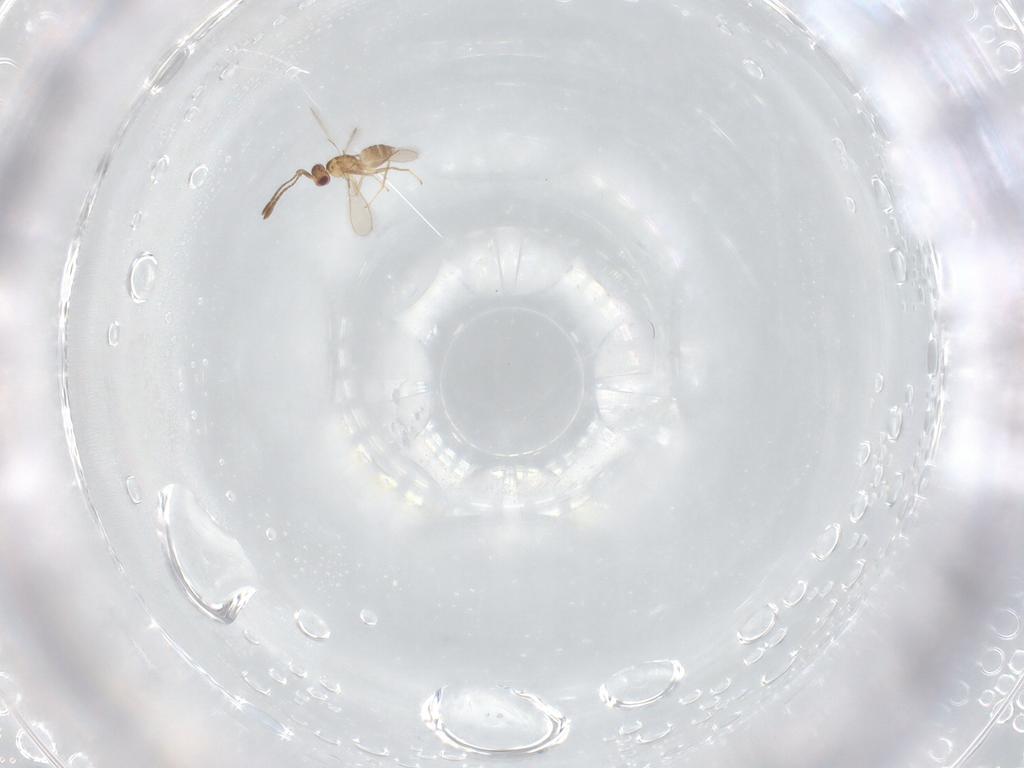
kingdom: Animalia
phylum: Arthropoda
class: Insecta
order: Hymenoptera
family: Formicidae
